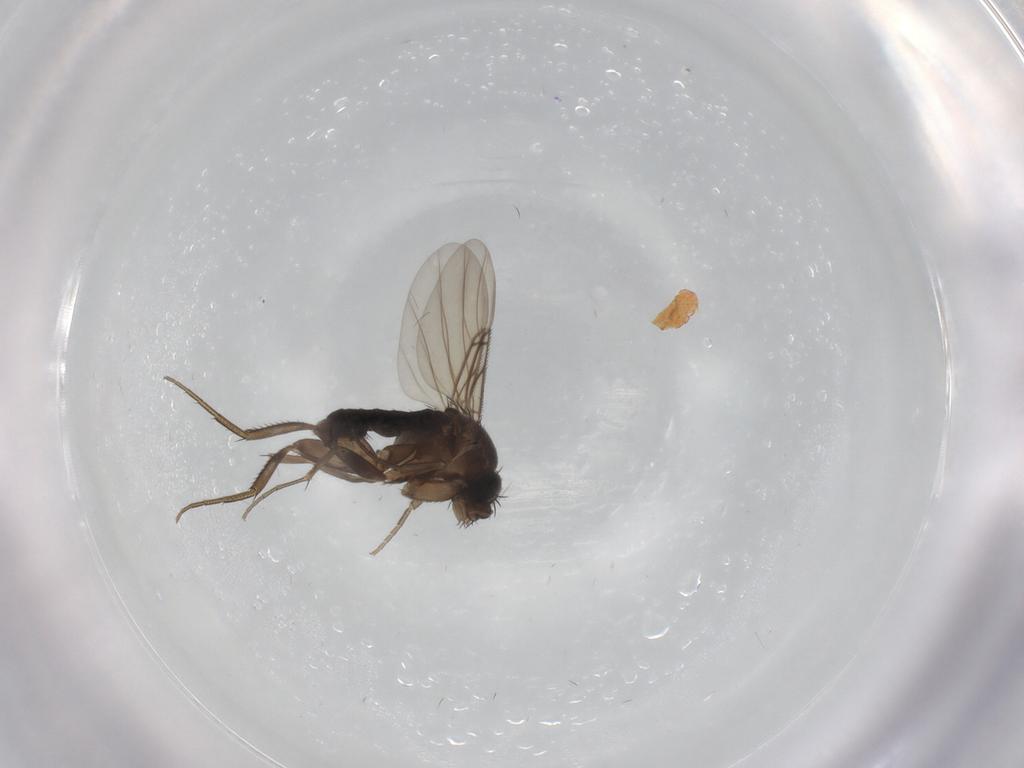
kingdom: Animalia
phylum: Arthropoda
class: Insecta
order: Diptera
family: Phoridae
